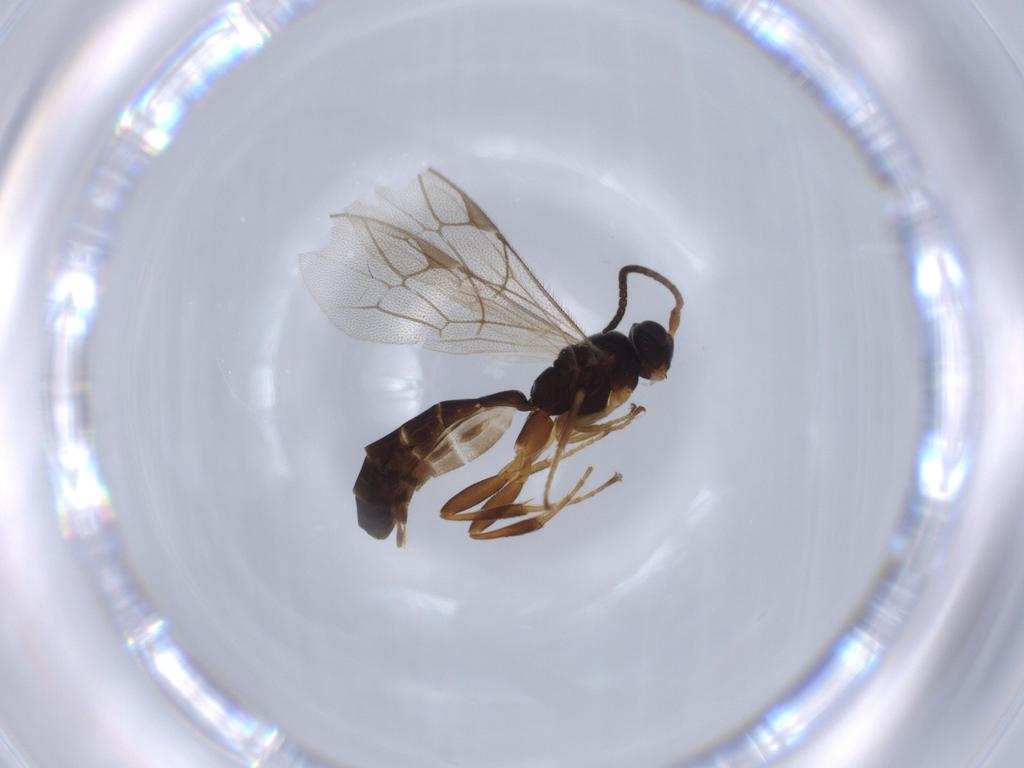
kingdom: Animalia
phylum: Arthropoda
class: Insecta
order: Hymenoptera
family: Ichneumonidae
